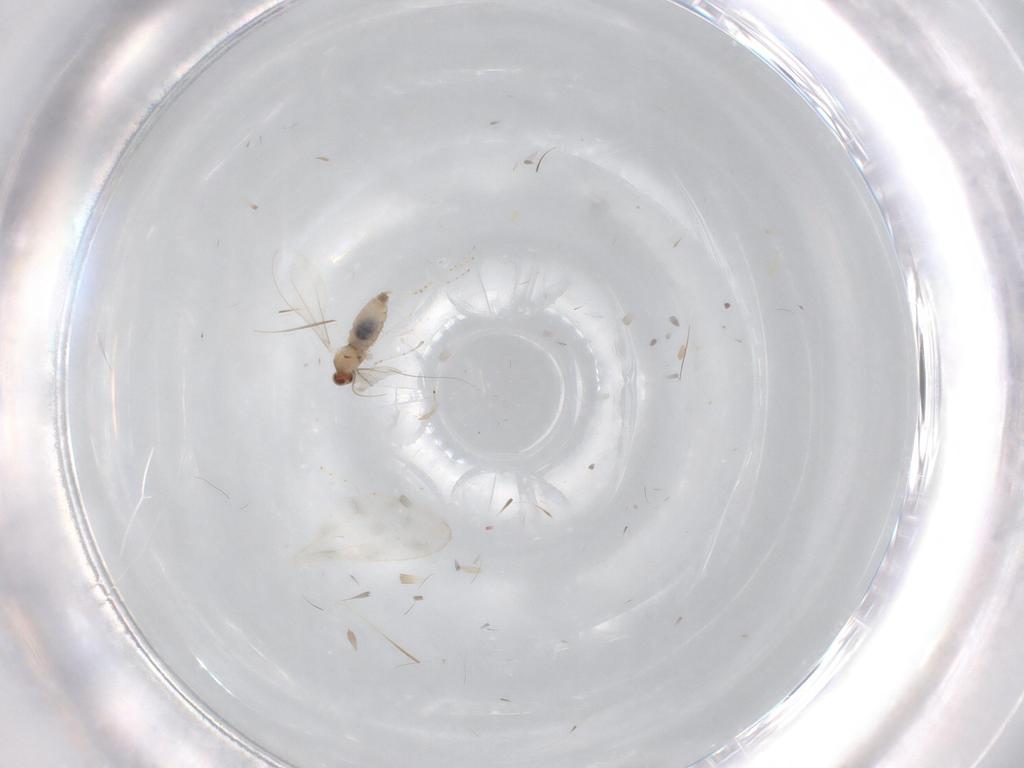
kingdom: Animalia
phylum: Arthropoda
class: Insecta
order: Diptera
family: Cecidomyiidae
